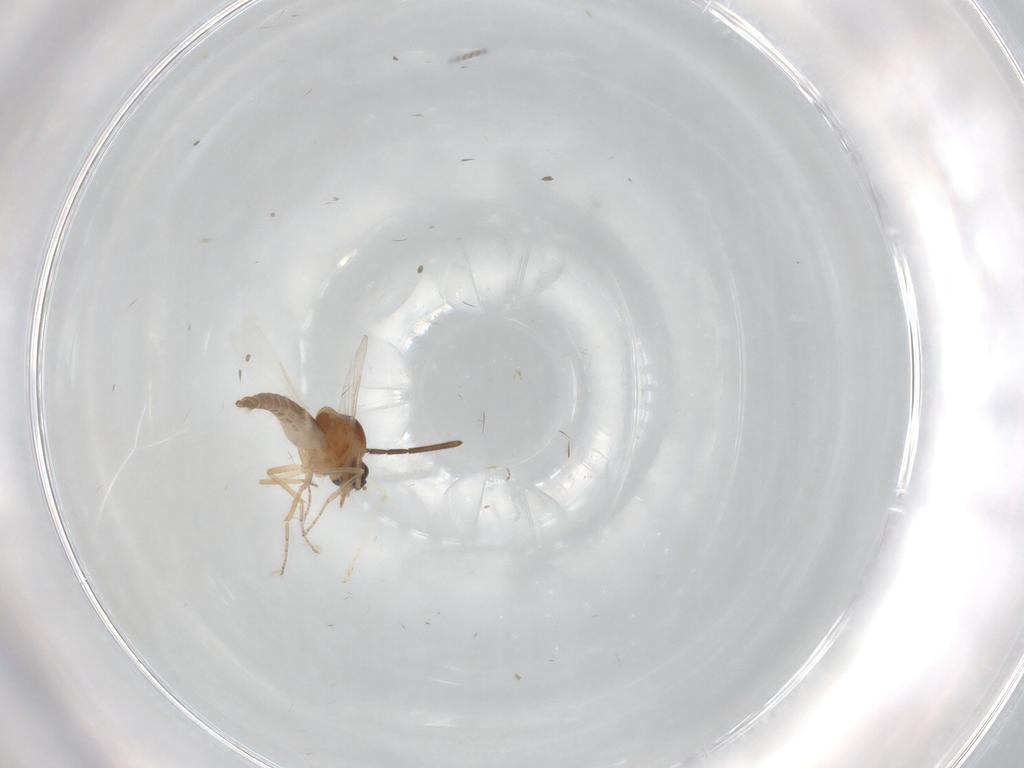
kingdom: Animalia
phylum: Arthropoda
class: Insecta
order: Diptera
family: Ceratopogonidae
